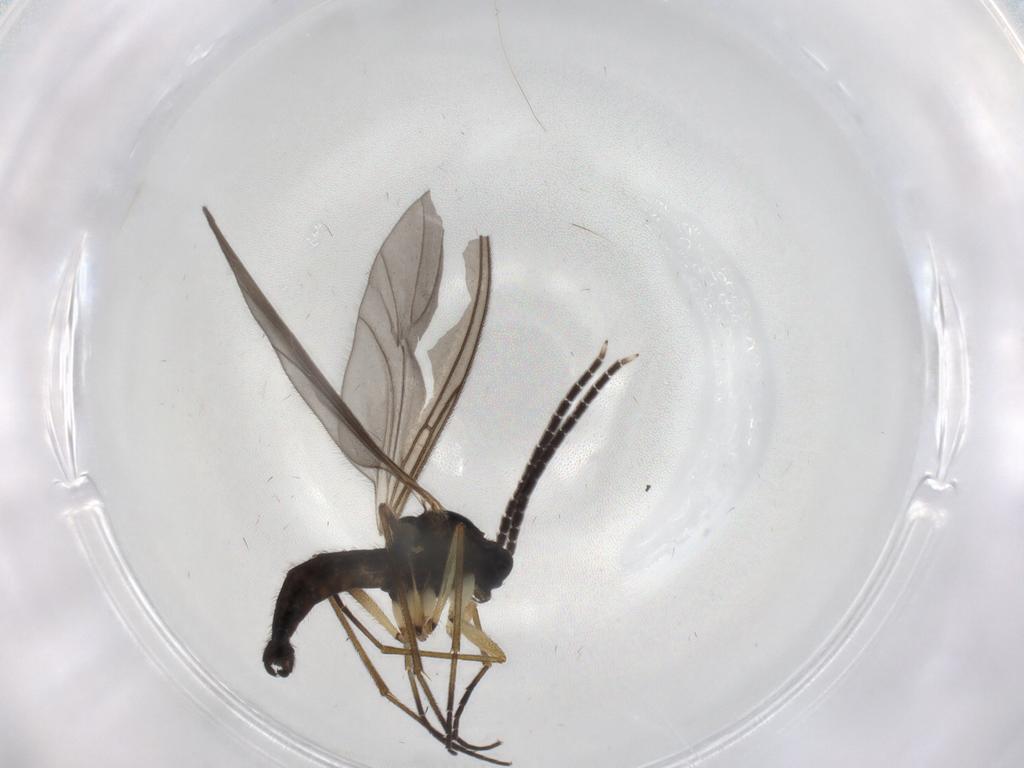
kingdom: Animalia
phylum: Arthropoda
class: Insecta
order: Diptera
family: Sciaridae
